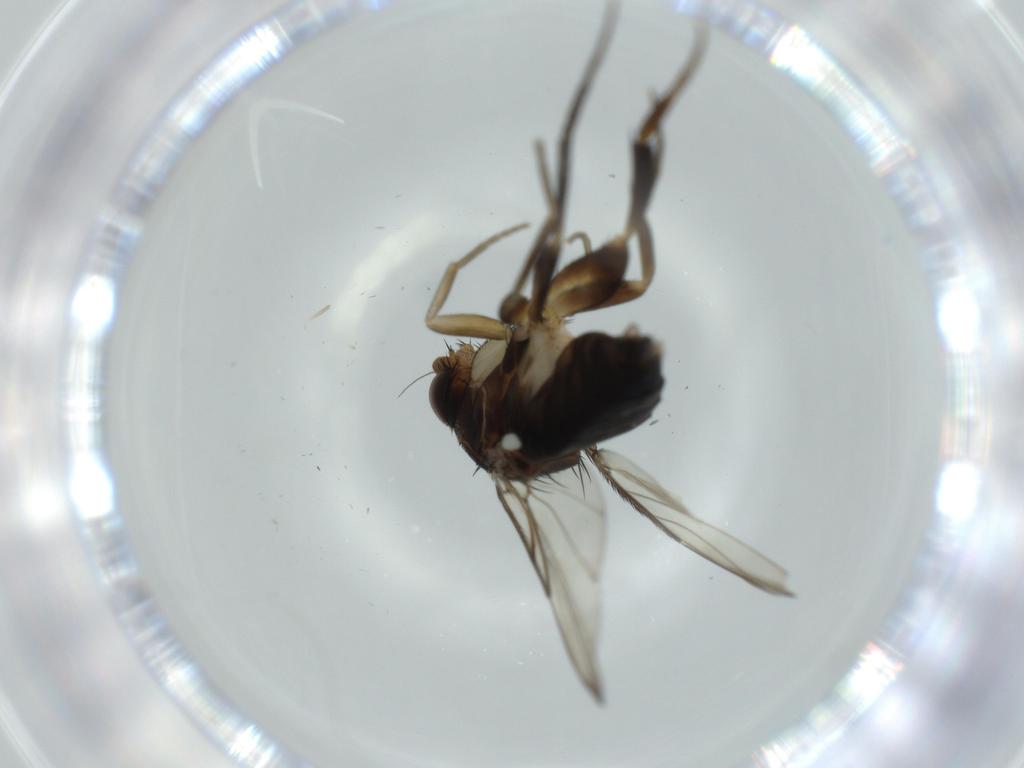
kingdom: Animalia
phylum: Arthropoda
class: Insecta
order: Diptera
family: Phoridae
